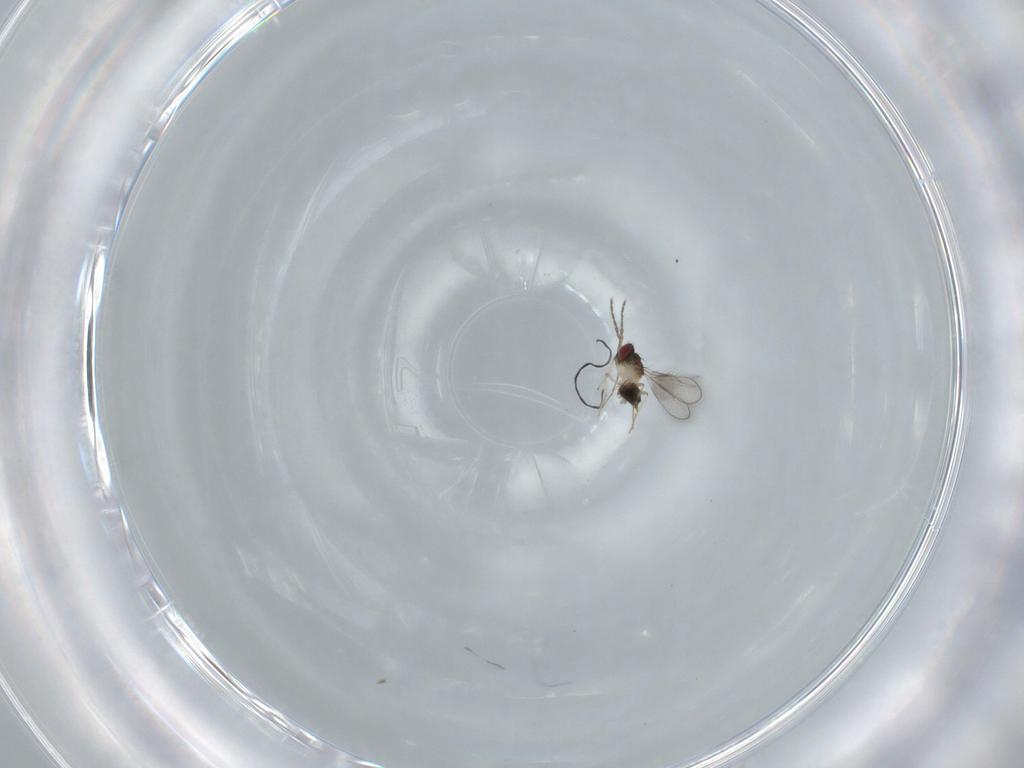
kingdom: Animalia
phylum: Arthropoda
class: Insecta
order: Hymenoptera
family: Formicidae
